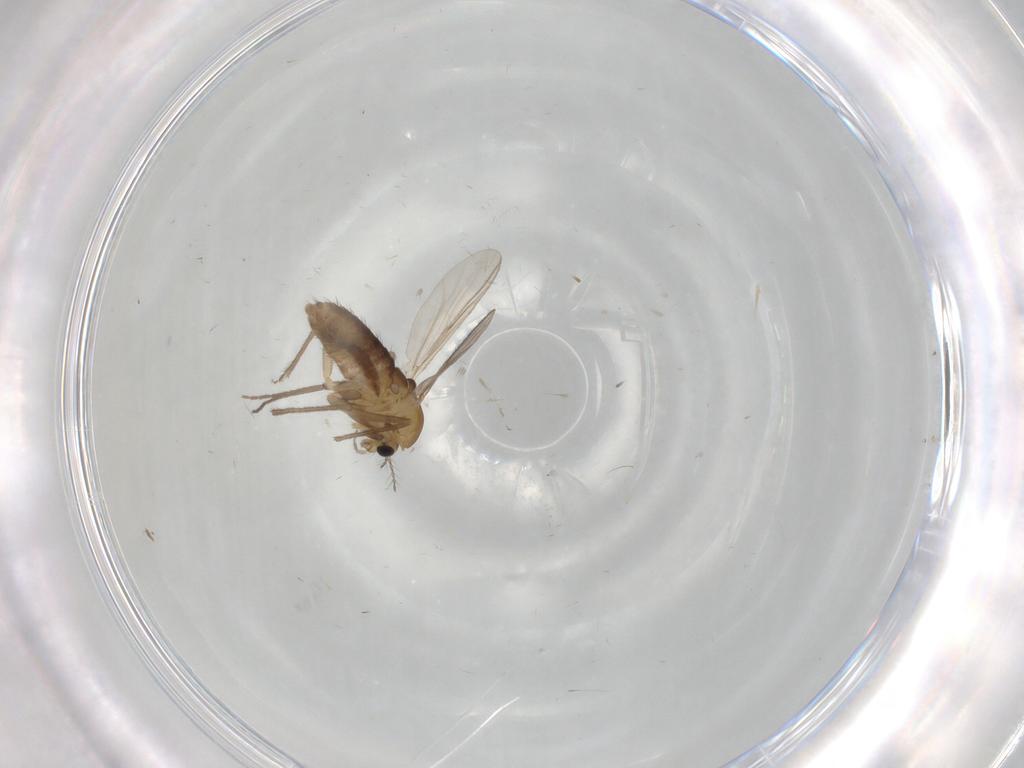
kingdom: Animalia
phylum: Arthropoda
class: Insecta
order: Diptera
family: Chironomidae
